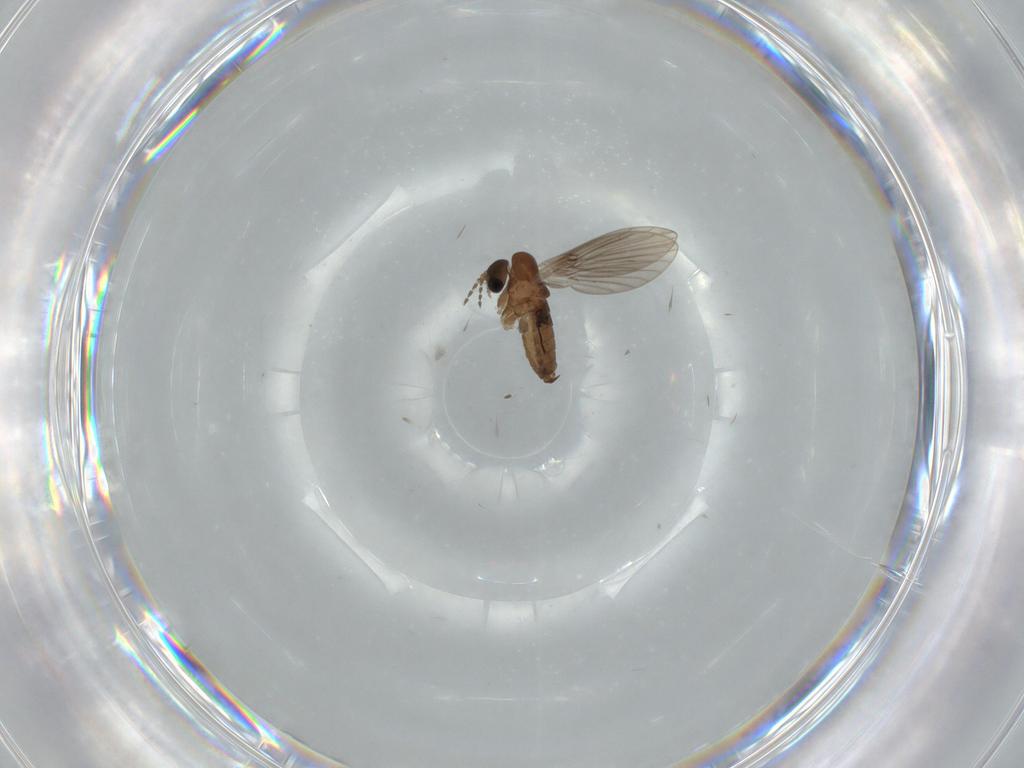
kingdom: Animalia
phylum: Arthropoda
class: Insecta
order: Diptera
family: Psychodidae
